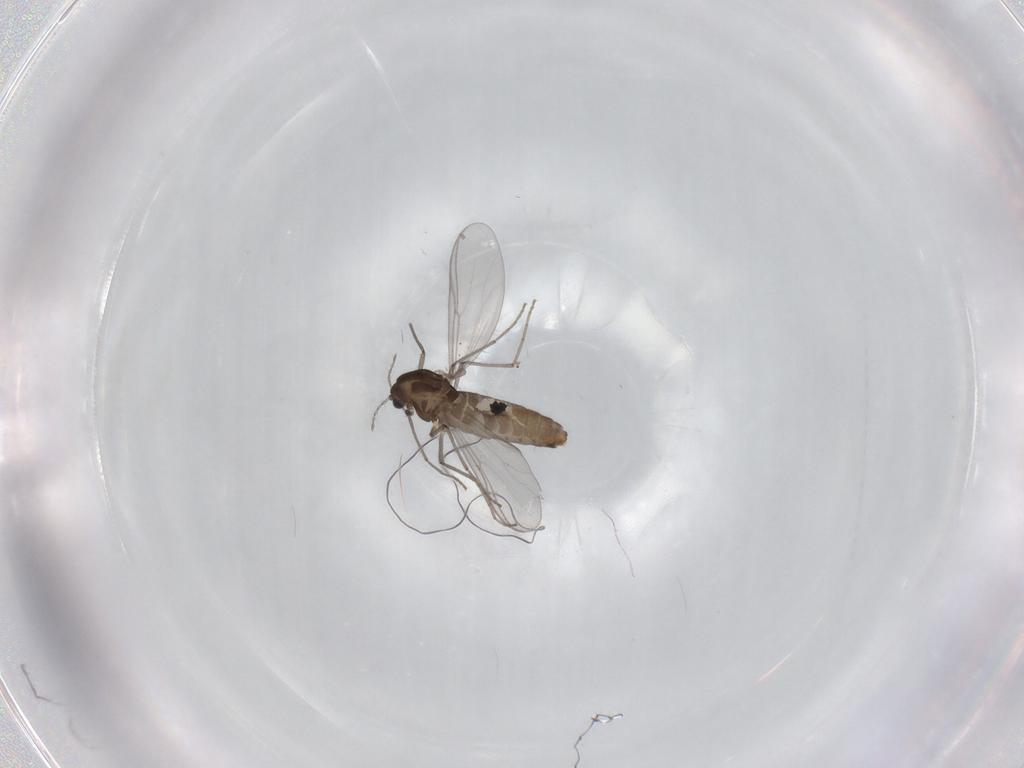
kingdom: Animalia
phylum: Arthropoda
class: Insecta
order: Diptera
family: Chironomidae
